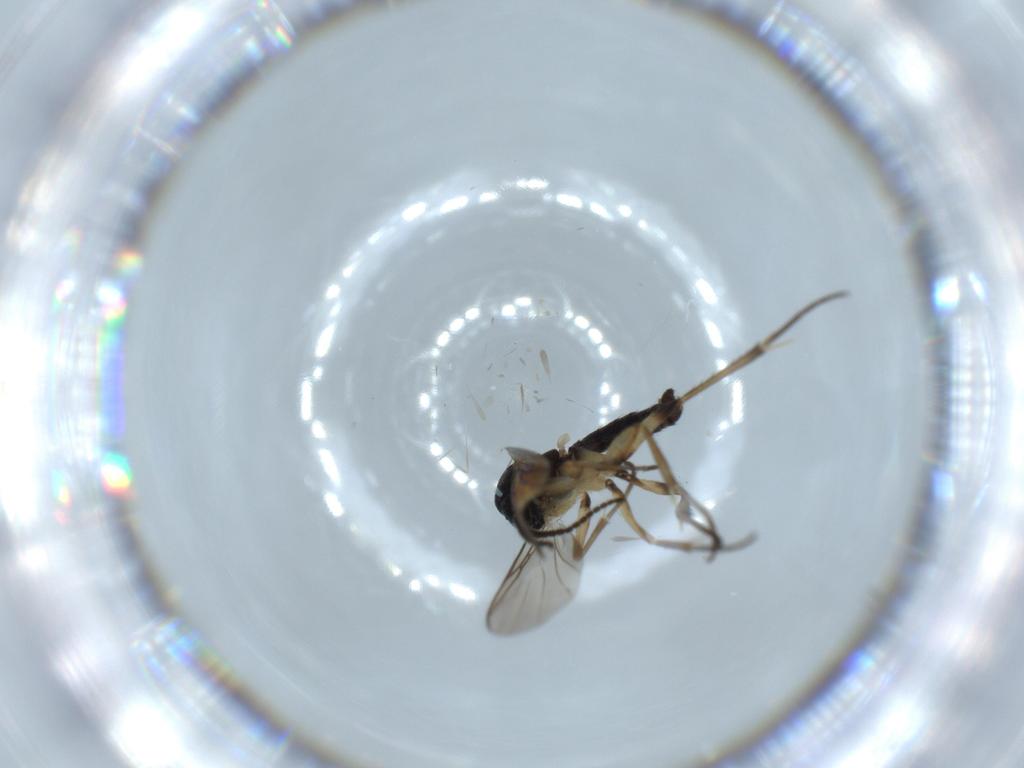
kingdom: Animalia
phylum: Arthropoda
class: Insecta
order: Diptera
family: Mycetophilidae
